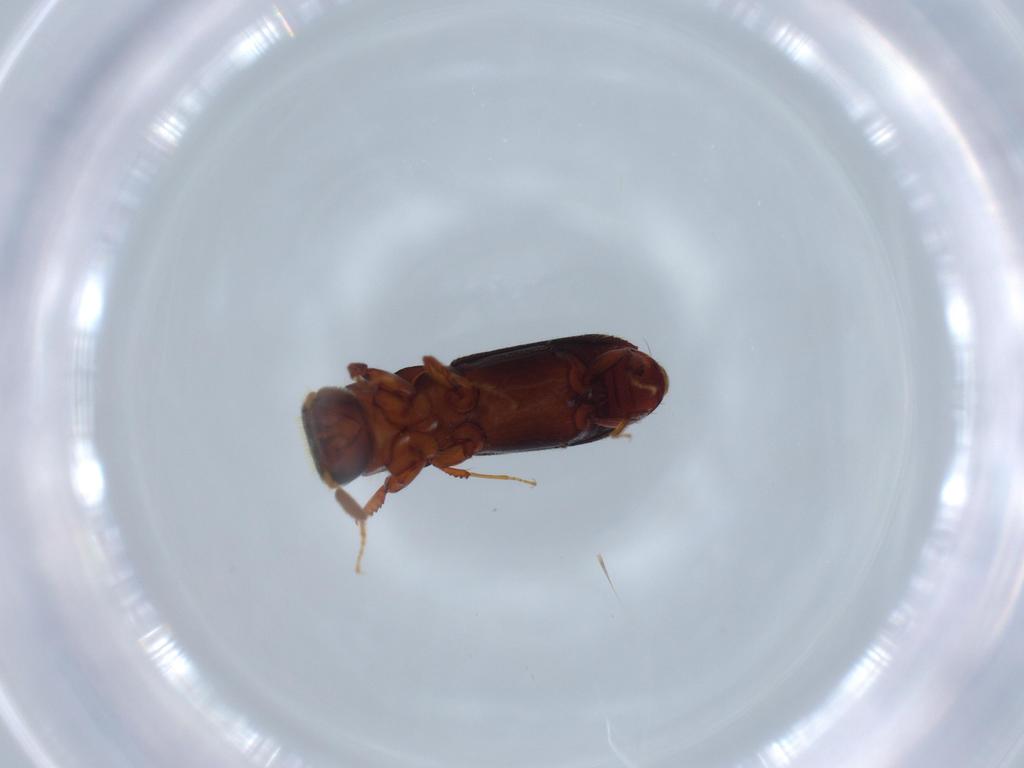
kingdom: Animalia
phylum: Arthropoda
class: Insecta
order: Coleoptera
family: Curculionidae
